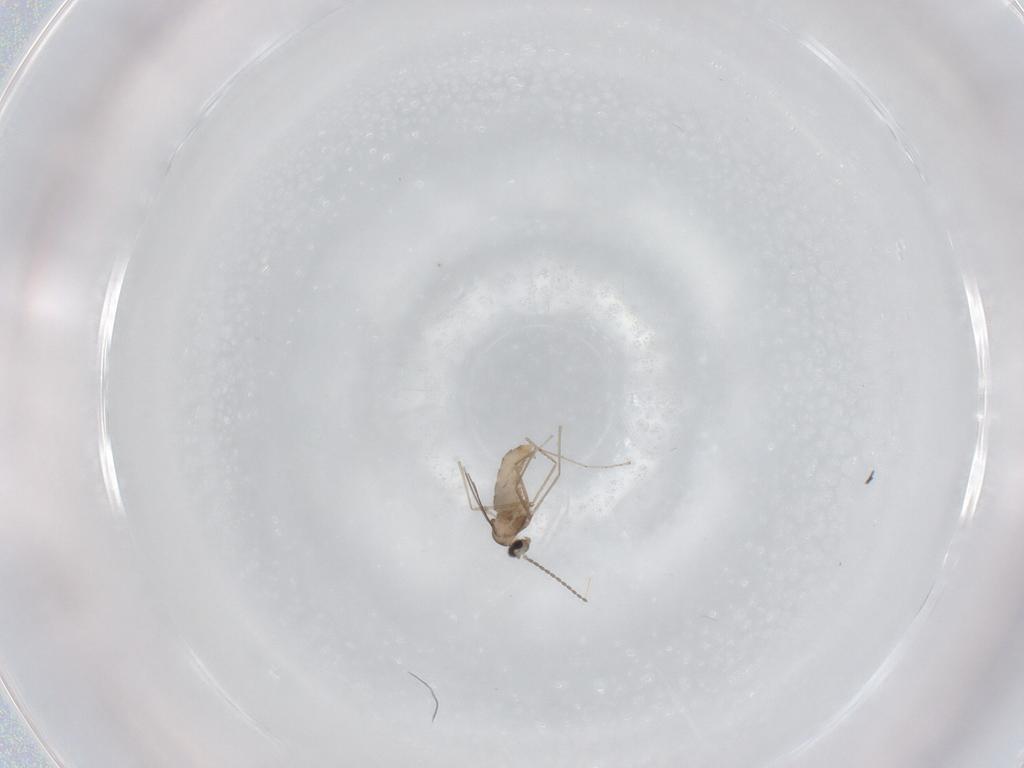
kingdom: Animalia
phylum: Arthropoda
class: Insecta
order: Diptera
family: Cecidomyiidae
